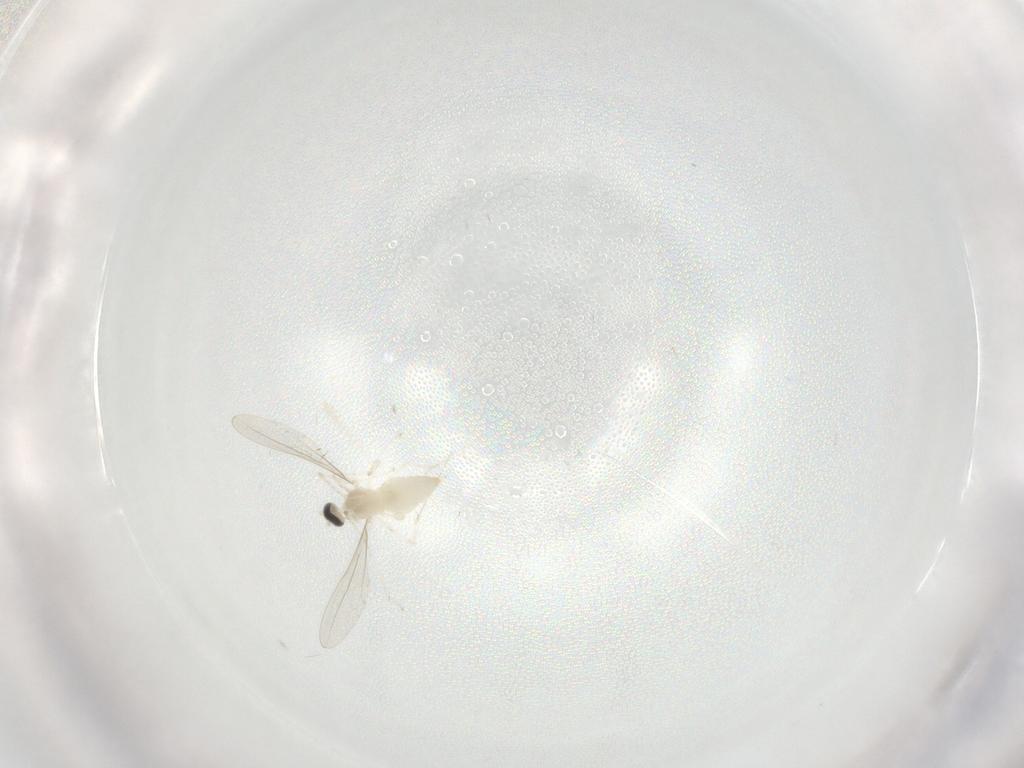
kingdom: Animalia
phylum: Arthropoda
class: Insecta
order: Diptera
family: Cecidomyiidae
